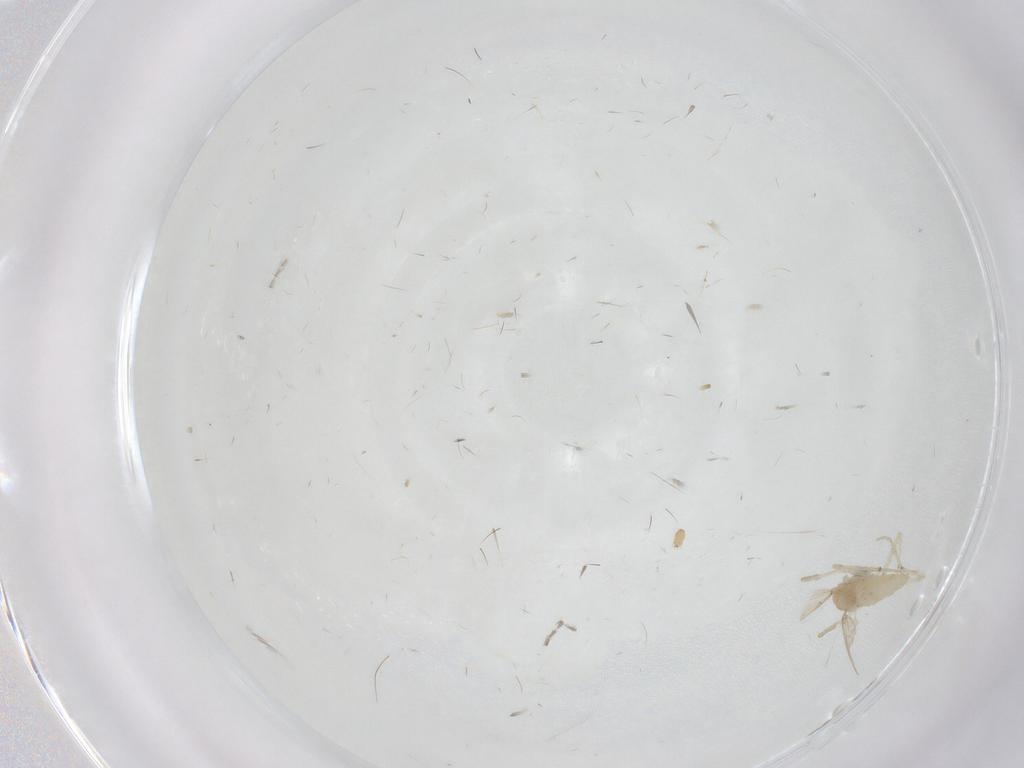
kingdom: Animalia
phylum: Arthropoda
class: Insecta
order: Diptera
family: Chironomidae
